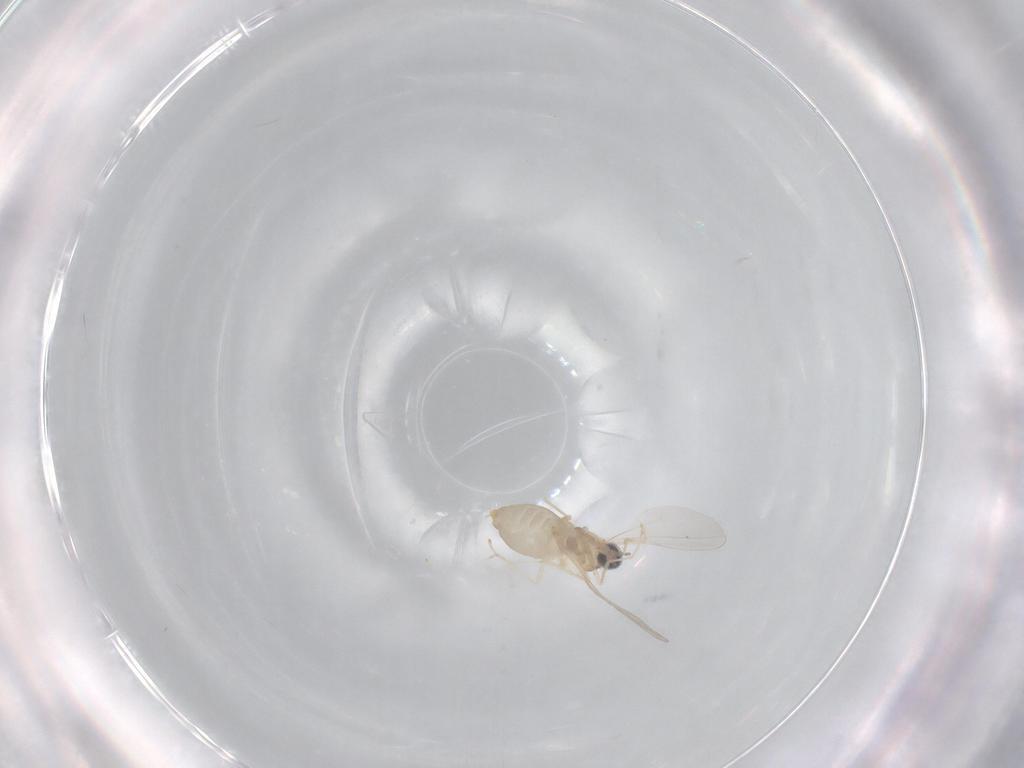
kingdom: Animalia
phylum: Arthropoda
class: Insecta
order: Diptera
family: Cecidomyiidae
